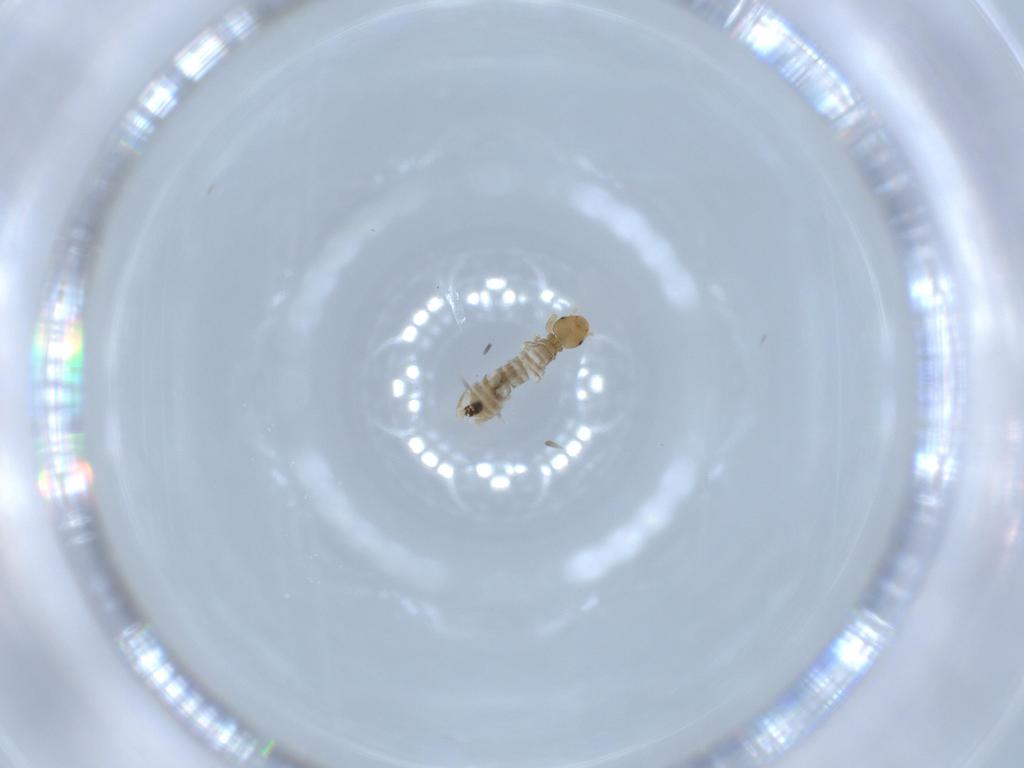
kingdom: Animalia
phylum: Arthropoda
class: Insecta
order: Psocodea
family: Liposcelididae
